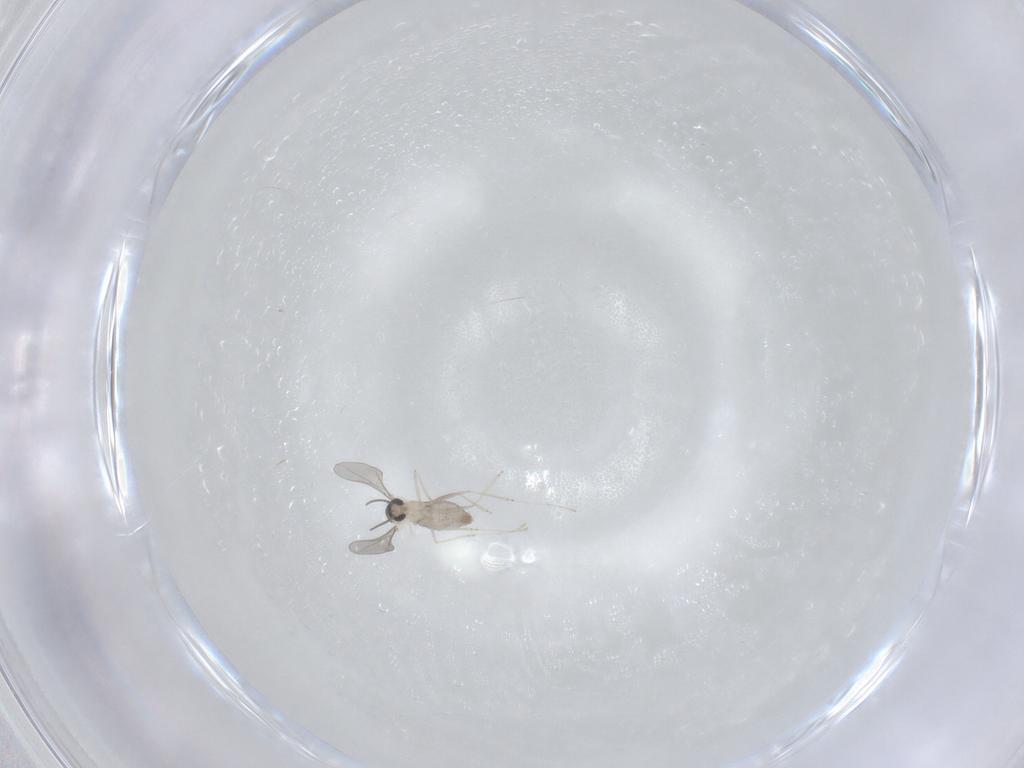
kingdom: Animalia
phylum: Arthropoda
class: Insecta
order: Diptera
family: Cecidomyiidae
